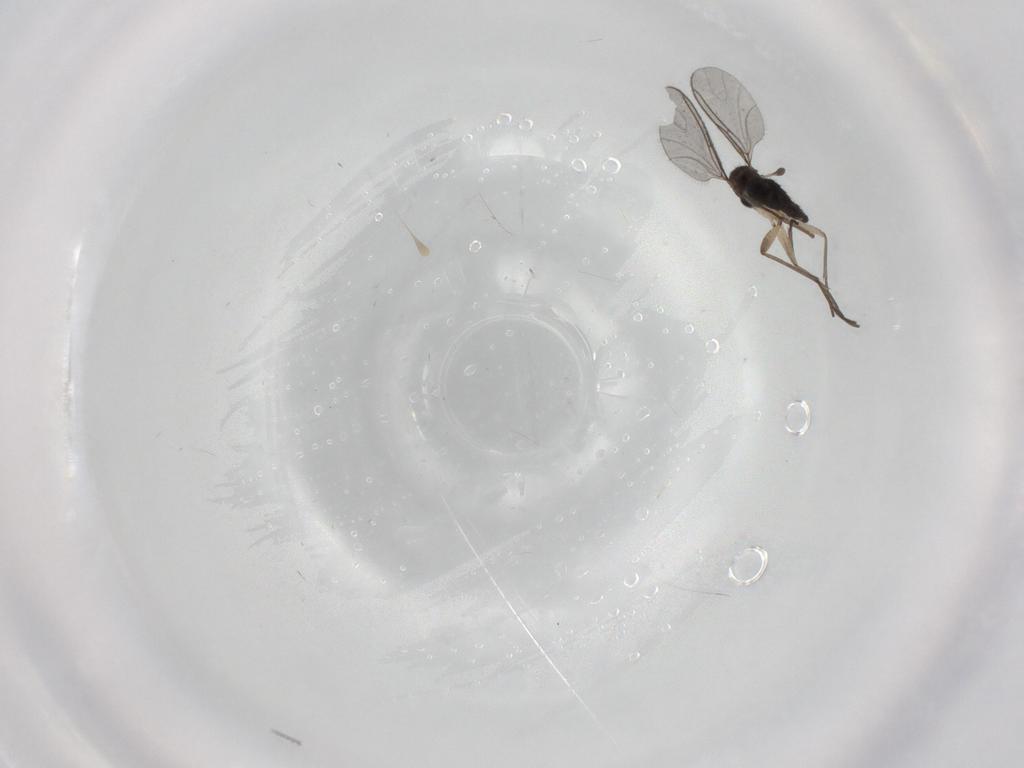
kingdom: Animalia
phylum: Arthropoda
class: Insecta
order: Diptera
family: Sciaridae
